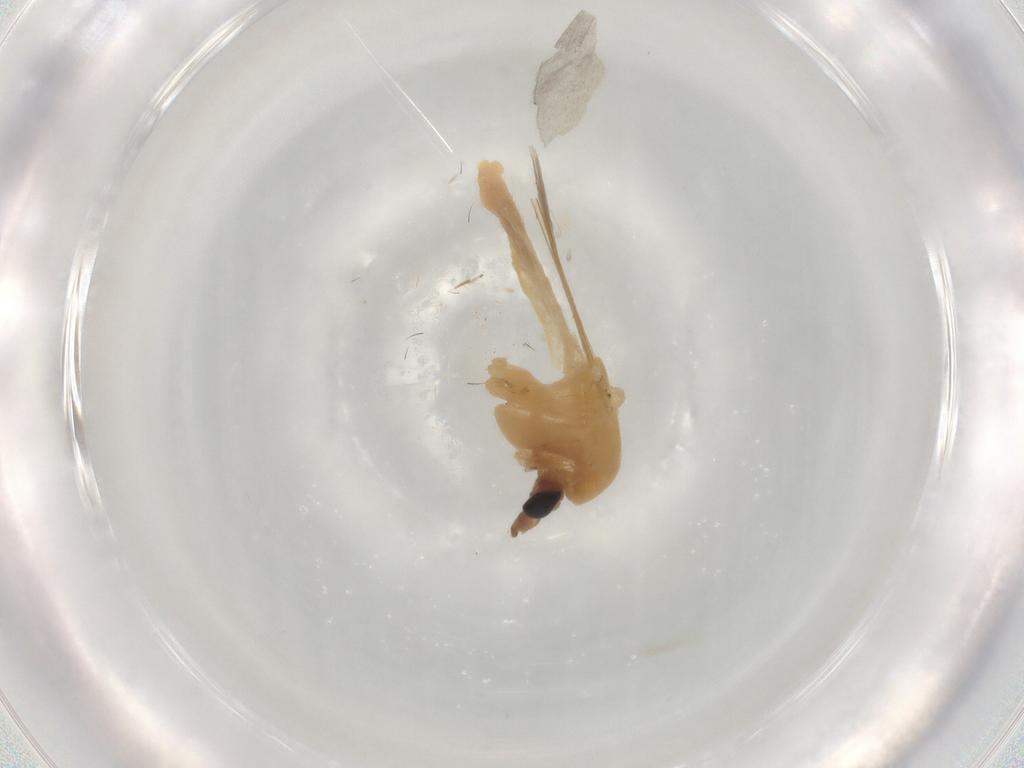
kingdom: Animalia
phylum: Arthropoda
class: Insecta
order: Diptera
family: Chironomidae
